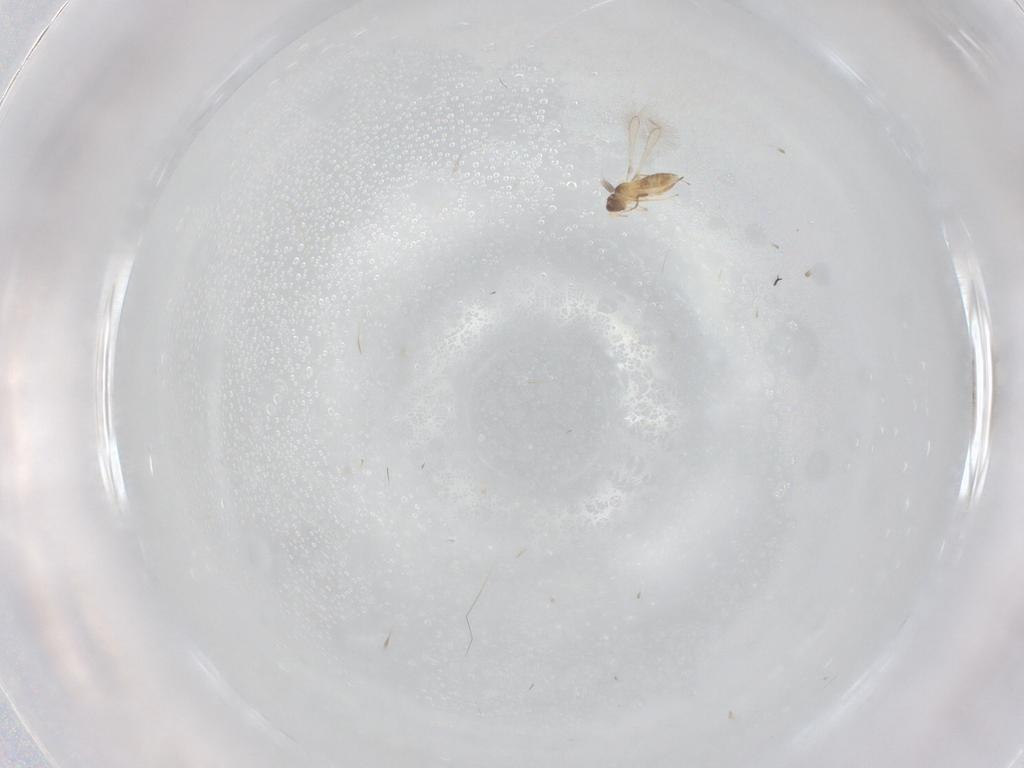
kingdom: Animalia
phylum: Arthropoda
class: Insecta
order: Hymenoptera
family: Mymaridae
